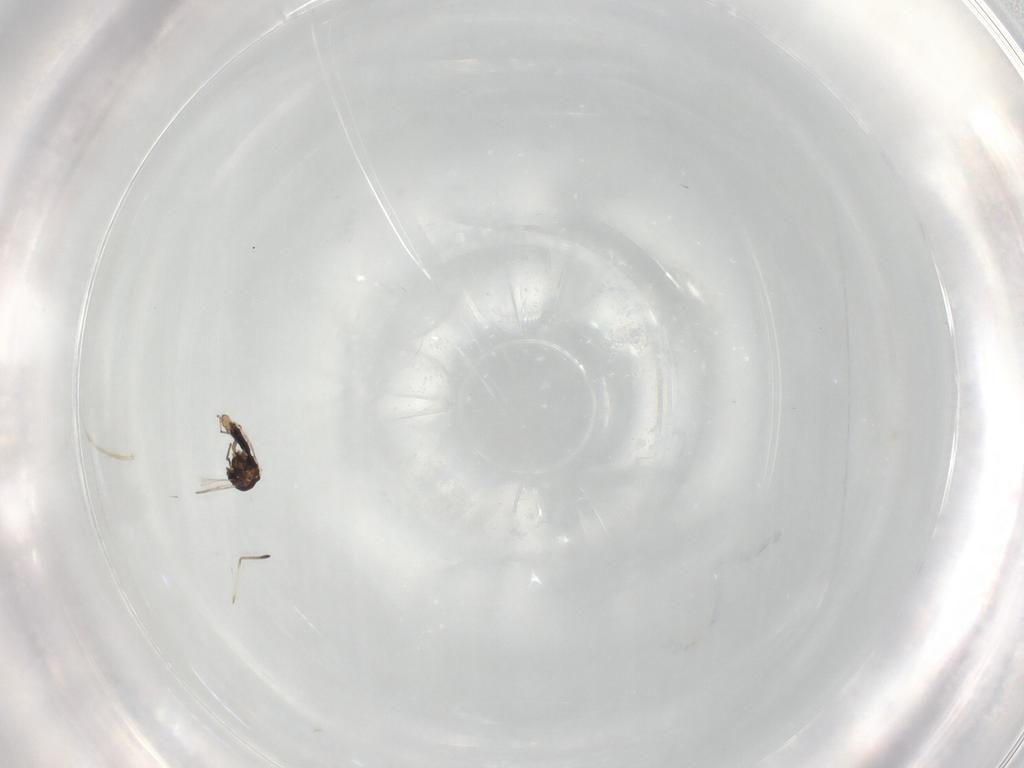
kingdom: Animalia
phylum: Arthropoda
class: Insecta
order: Diptera
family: Chironomidae
